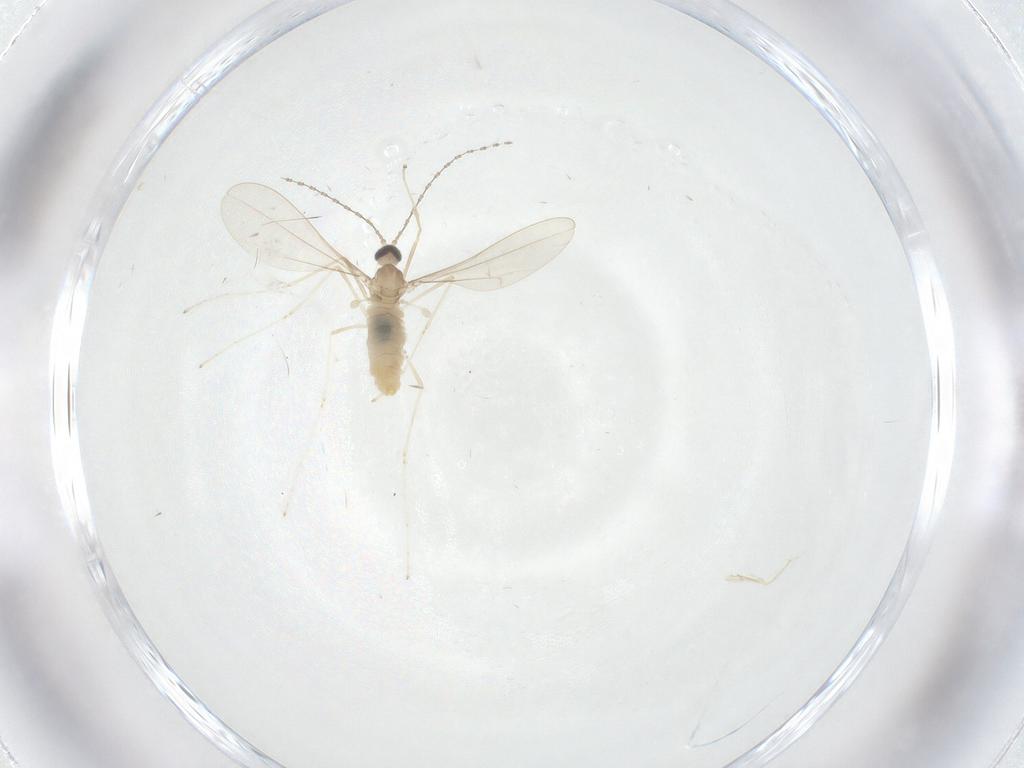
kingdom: Animalia
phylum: Arthropoda
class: Insecta
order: Diptera
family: Cecidomyiidae
